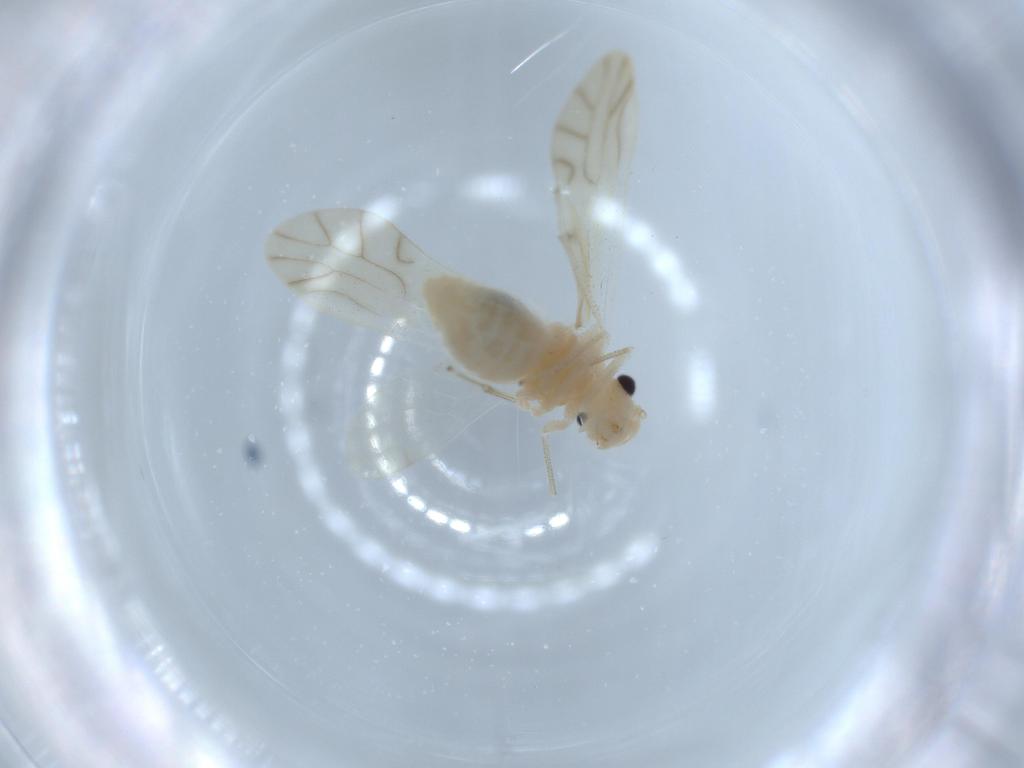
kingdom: Animalia
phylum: Arthropoda
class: Insecta
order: Psocodea
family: Caeciliusidae
